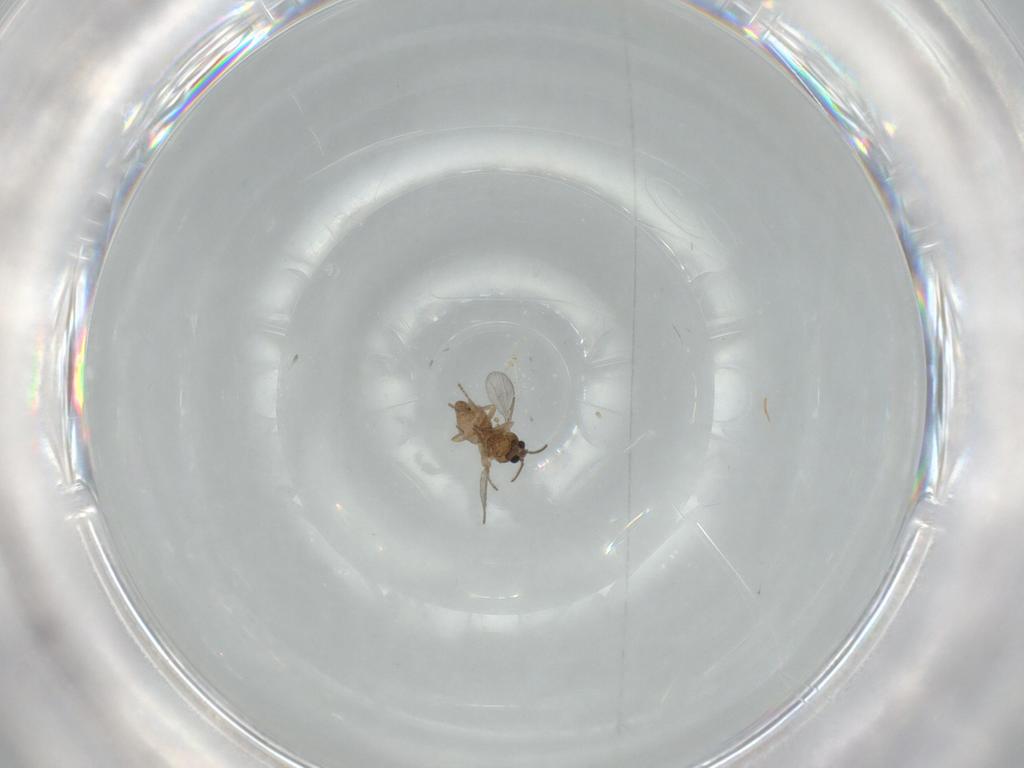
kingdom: Animalia
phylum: Arthropoda
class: Insecta
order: Diptera
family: Ceratopogonidae
